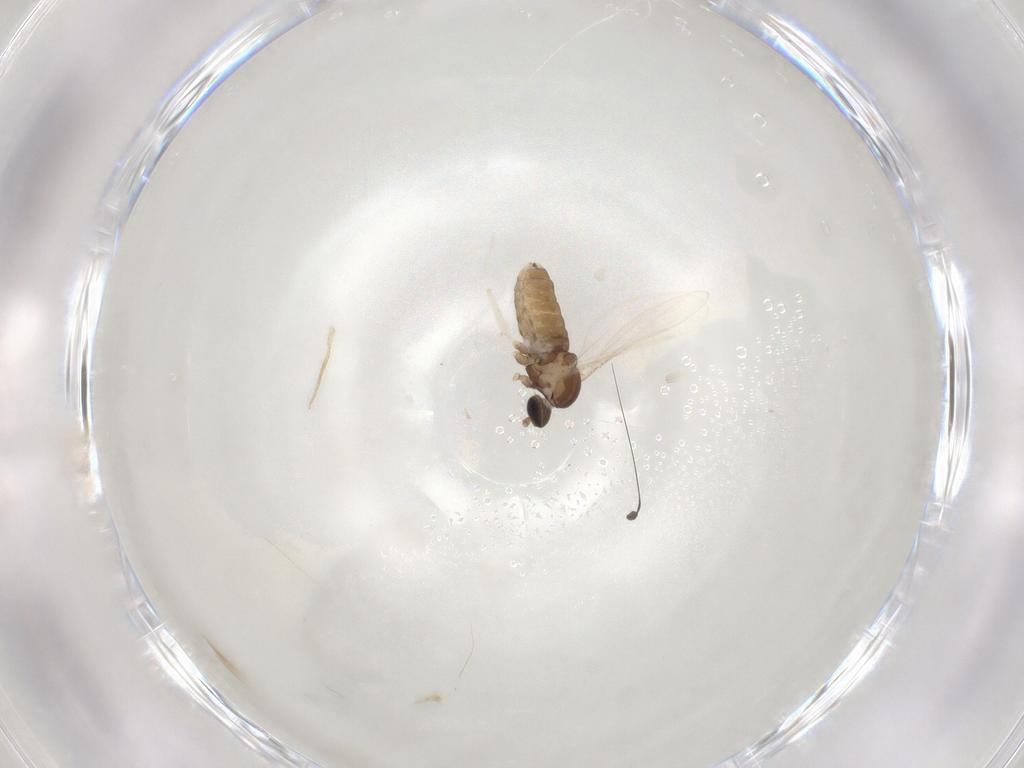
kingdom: Animalia
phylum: Arthropoda
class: Insecta
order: Diptera
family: Cecidomyiidae
